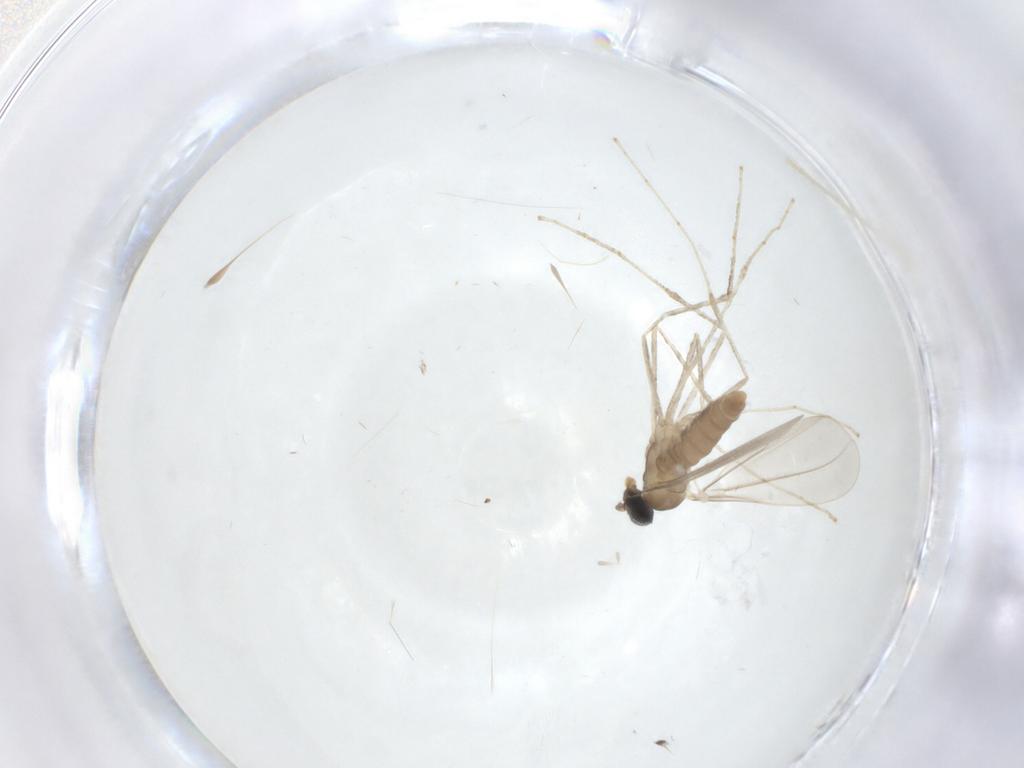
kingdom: Animalia
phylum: Arthropoda
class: Insecta
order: Diptera
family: Cecidomyiidae
